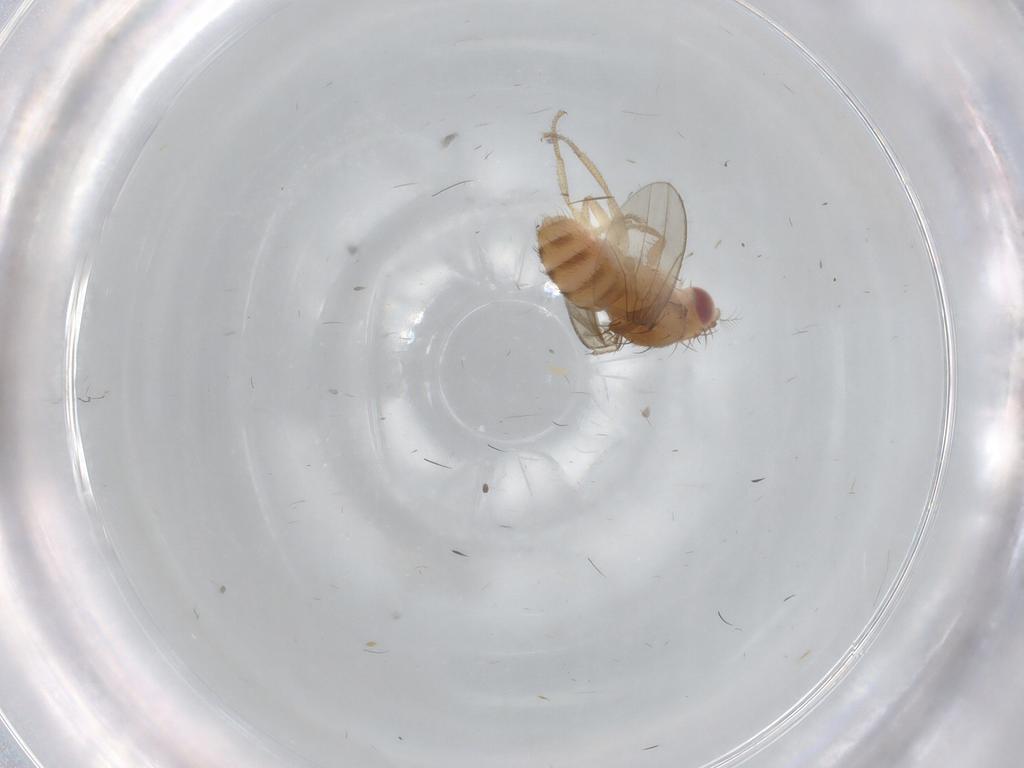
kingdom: Animalia
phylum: Arthropoda
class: Insecta
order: Diptera
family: Drosophilidae
